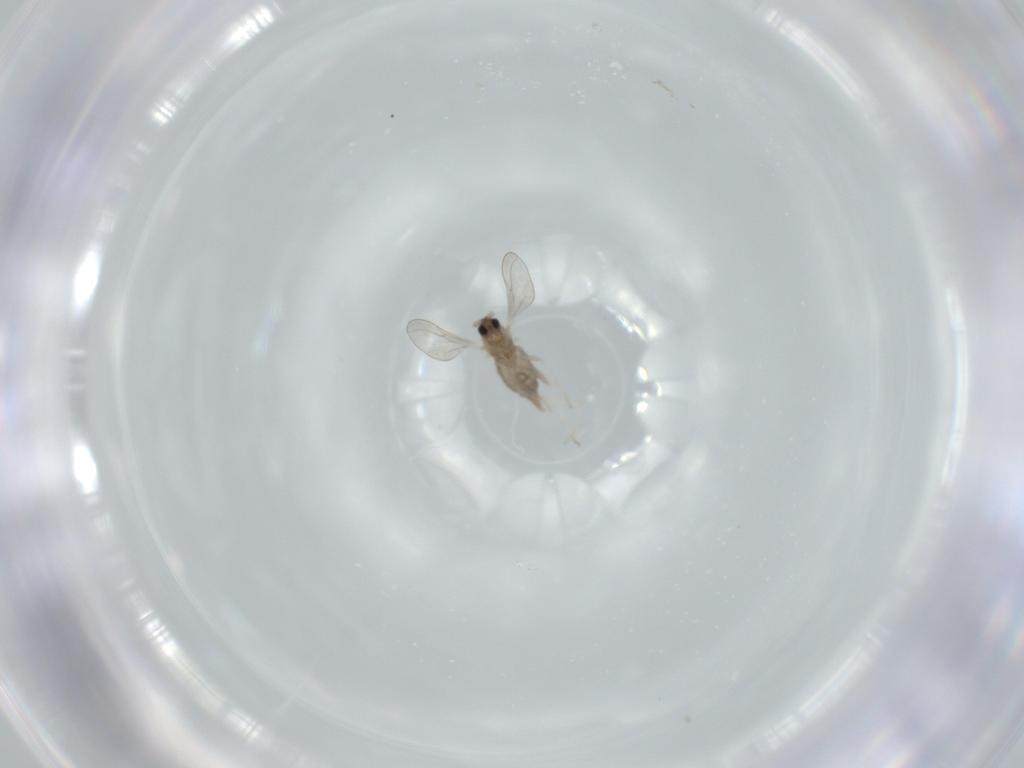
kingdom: Animalia
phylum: Arthropoda
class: Insecta
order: Diptera
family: Cecidomyiidae
